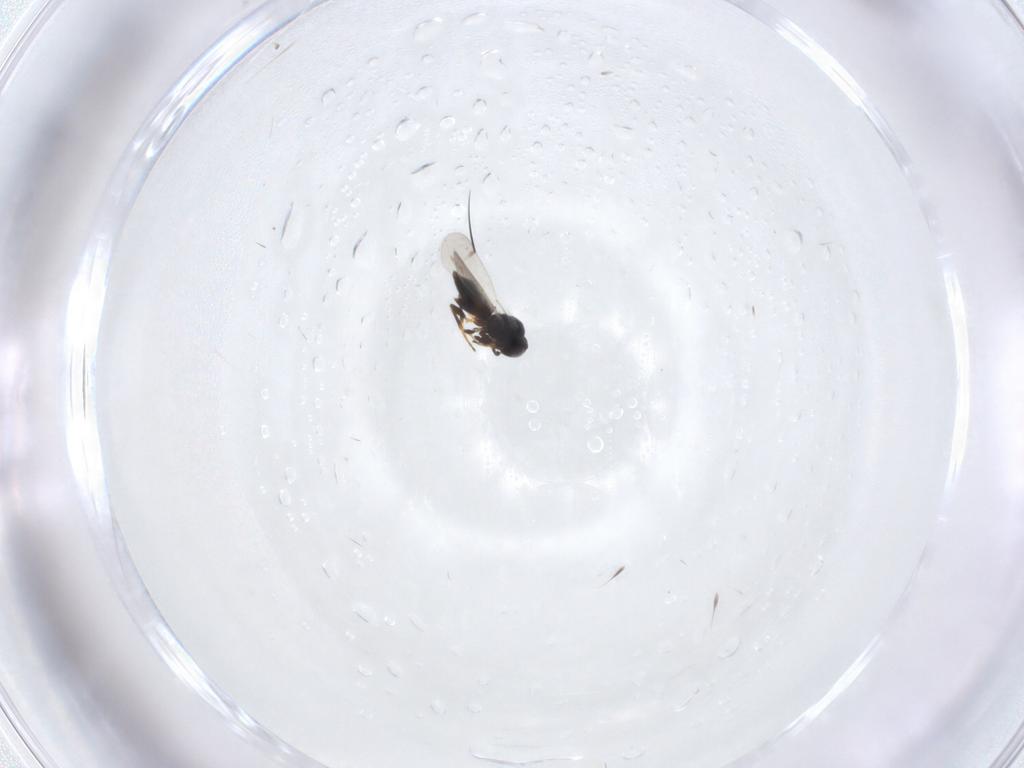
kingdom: Animalia
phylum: Arthropoda
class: Insecta
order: Hymenoptera
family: Platygastridae
